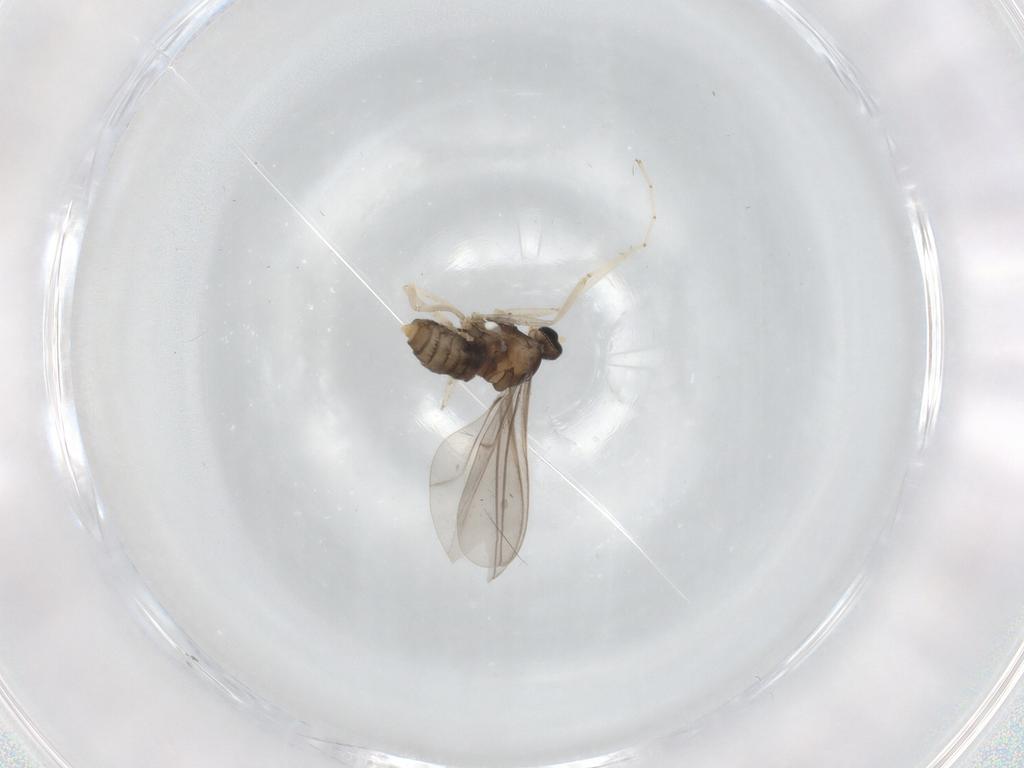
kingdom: Animalia
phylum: Arthropoda
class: Insecta
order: Diptera
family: Cecidomyiidae
